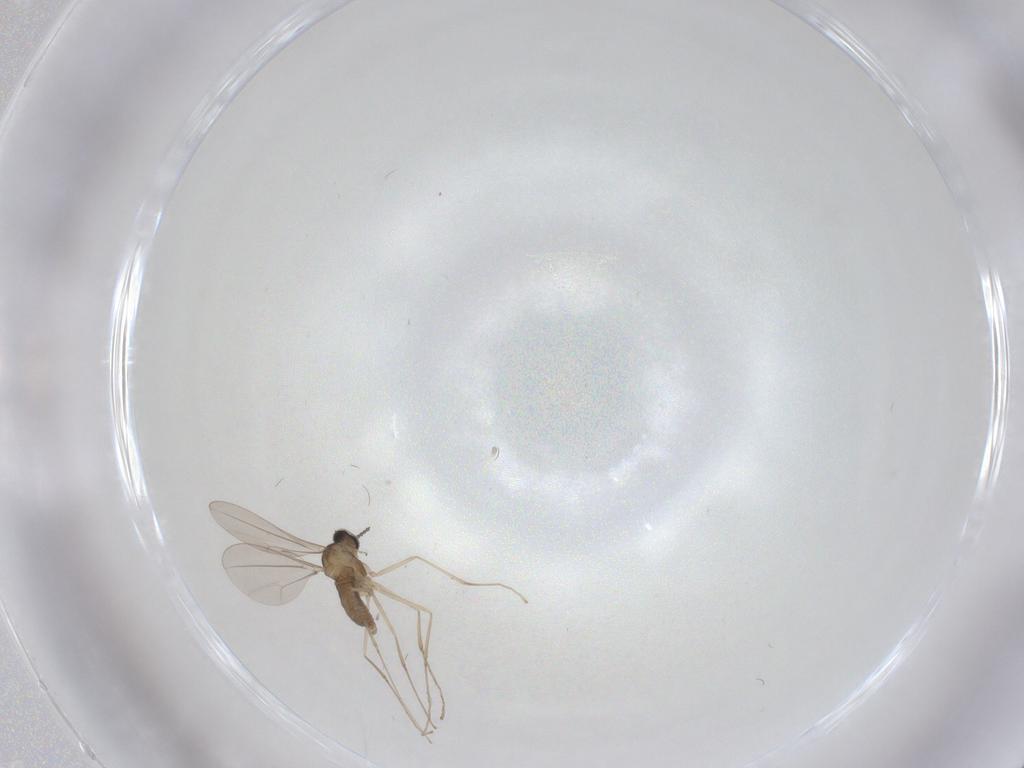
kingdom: Animalia
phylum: Arthropoda
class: Insecta
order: Diptera
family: Cecidomyiidae
